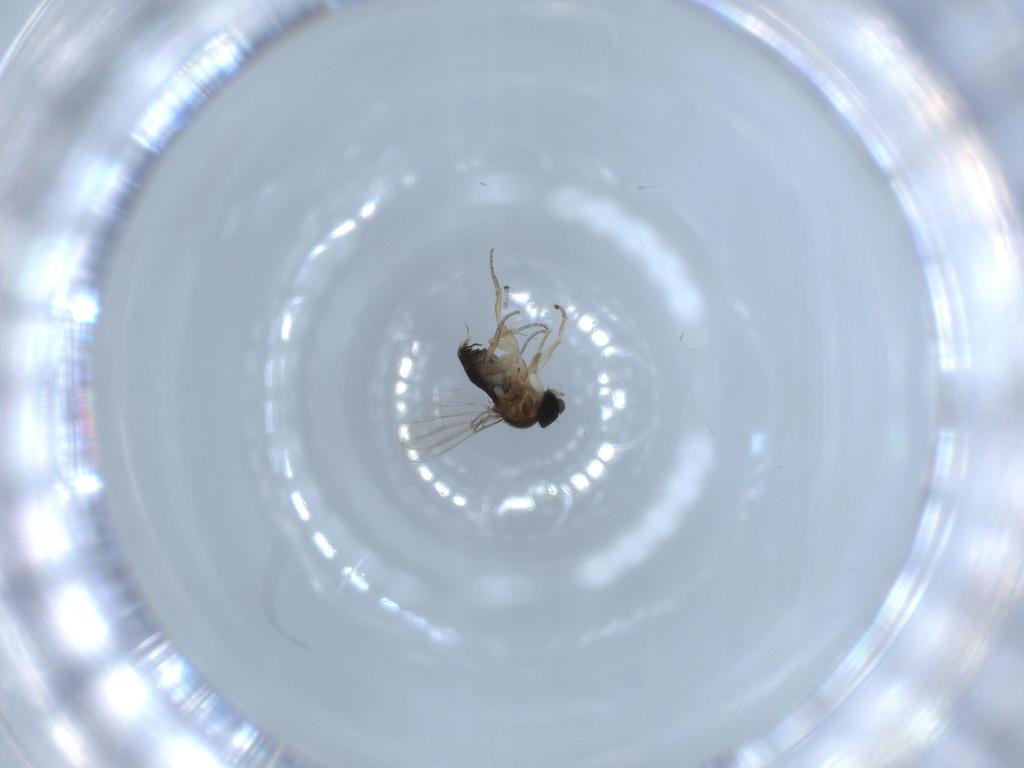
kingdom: Animalia
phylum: Arthropoda
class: Insecta
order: Diptera
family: Phoridae
